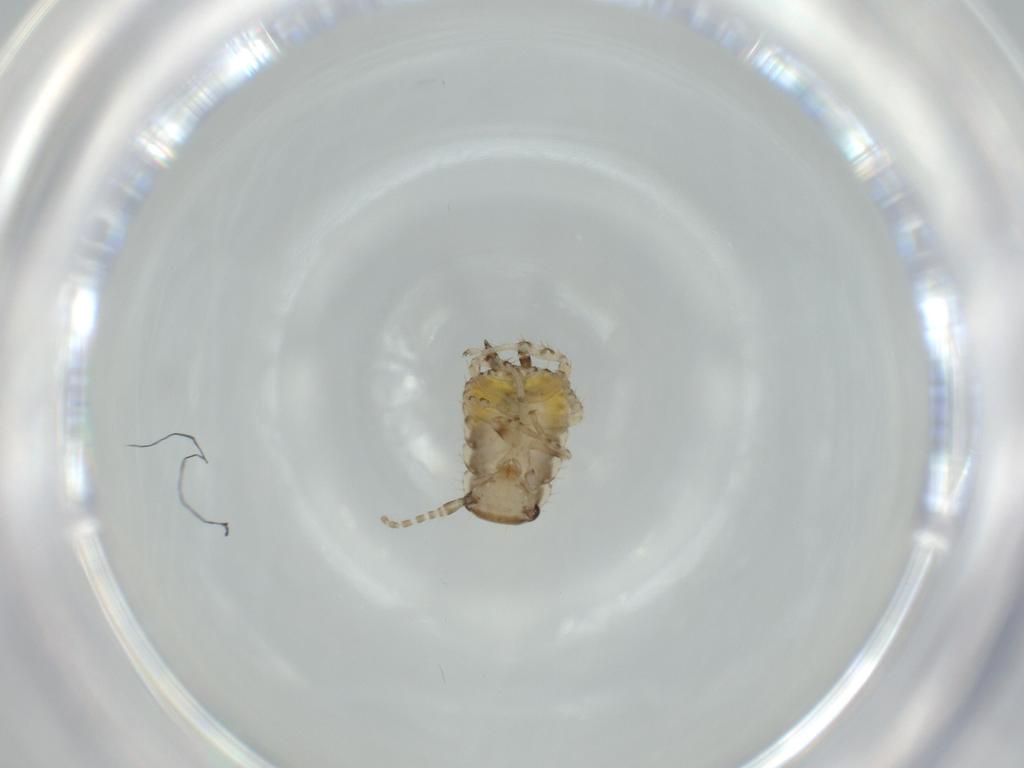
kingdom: Animalia
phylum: Arthropoda
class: Insecta
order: Blattodea
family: Ectobiidae
